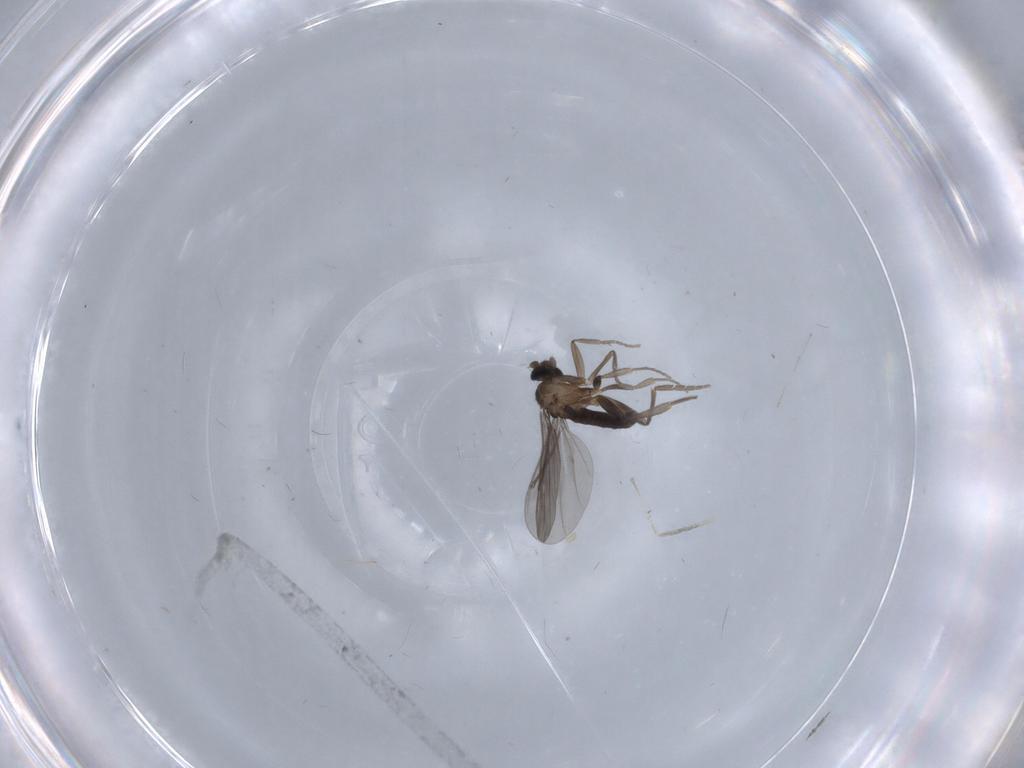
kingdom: Animalia
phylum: Arthropoda
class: Insecta
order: Diptera
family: Phoridae
